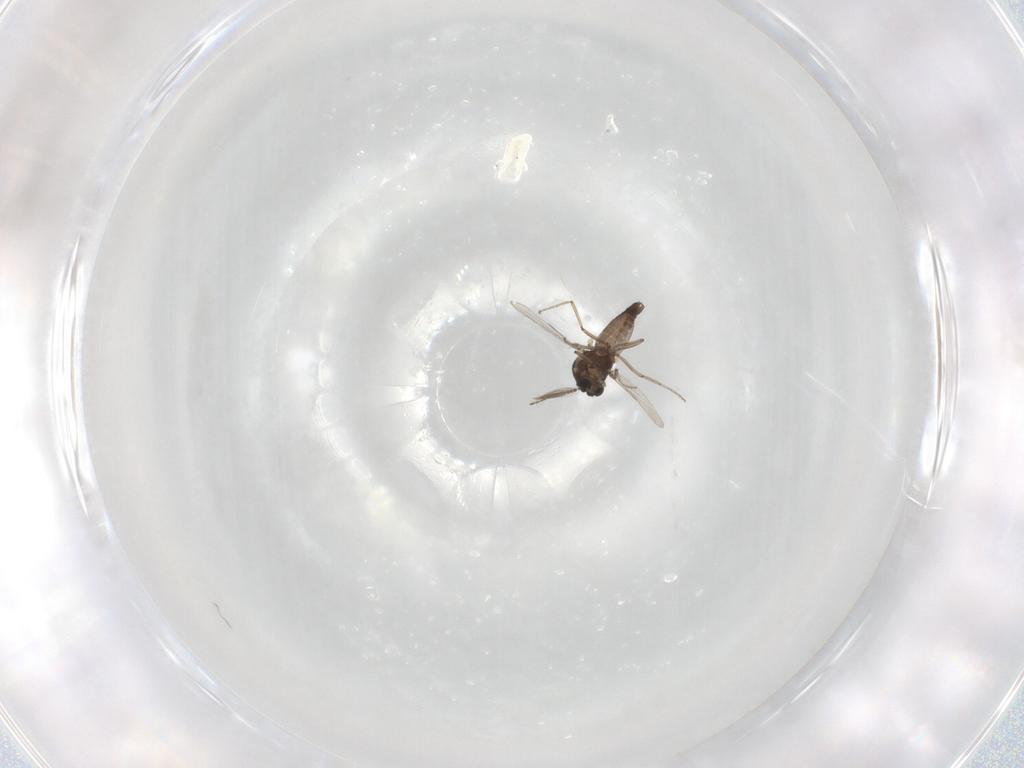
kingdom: Animalia
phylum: Arthropoda
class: Insecta
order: Diptera
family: Ceratopogonidae
